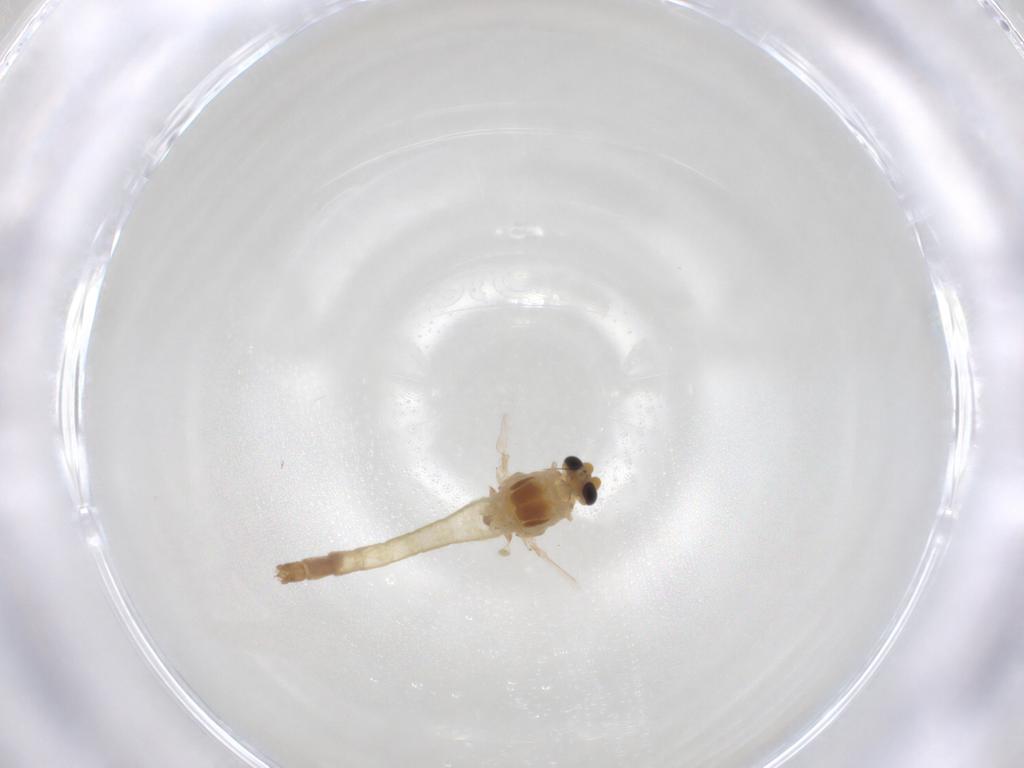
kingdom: Animalia
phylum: Arthropoda
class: Insecta
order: Diptera
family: Chironomidae
